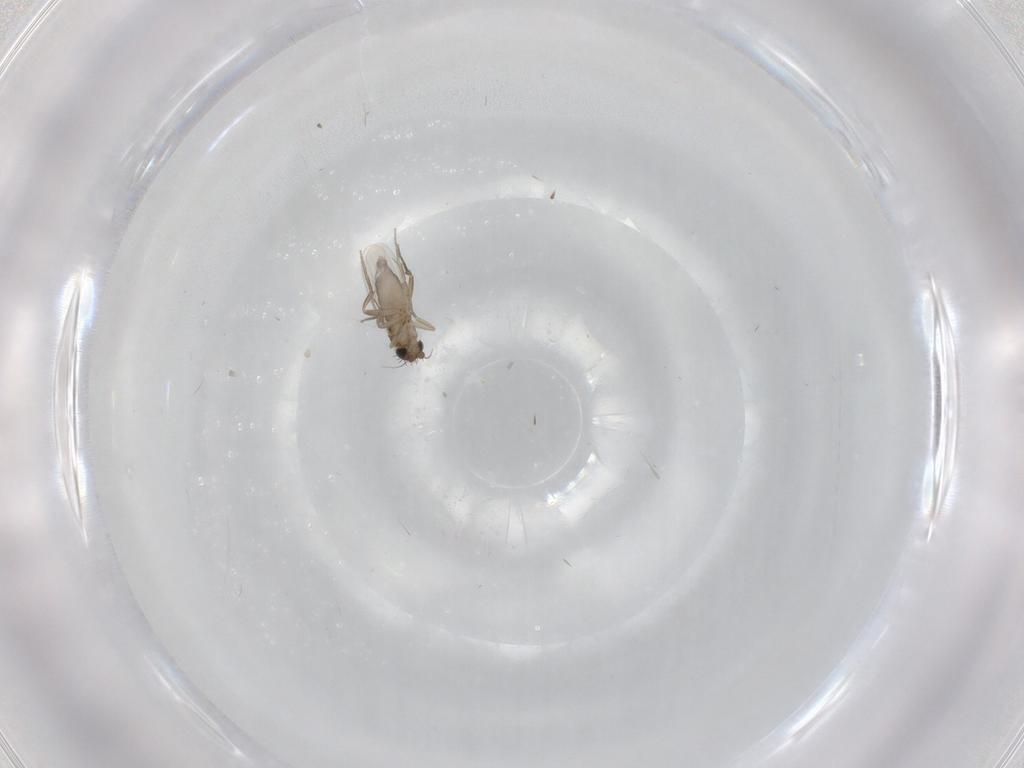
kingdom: Animalia
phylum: Arthropoda
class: Insecta
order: Diptera
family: Phoridae
